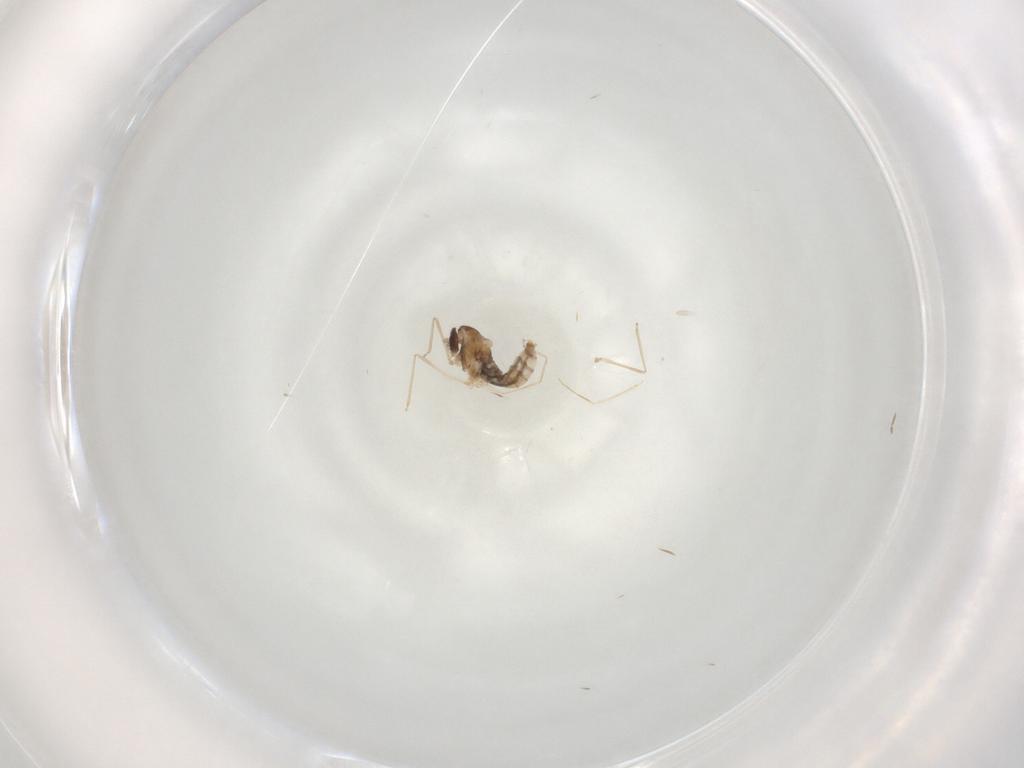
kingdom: Animalia
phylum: Arthropoda
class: Insecta
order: Diptera
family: Cecidomyiidae
